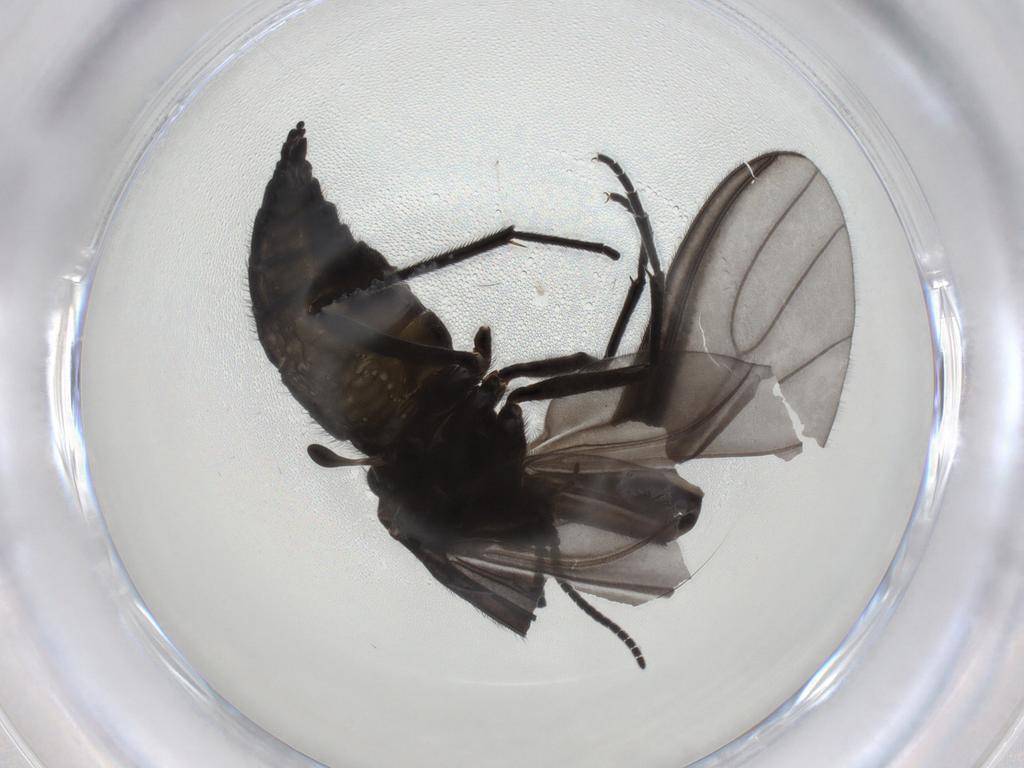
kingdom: Animalia
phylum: Arthropoda
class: Insecta
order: Diptera
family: Sciaridae
